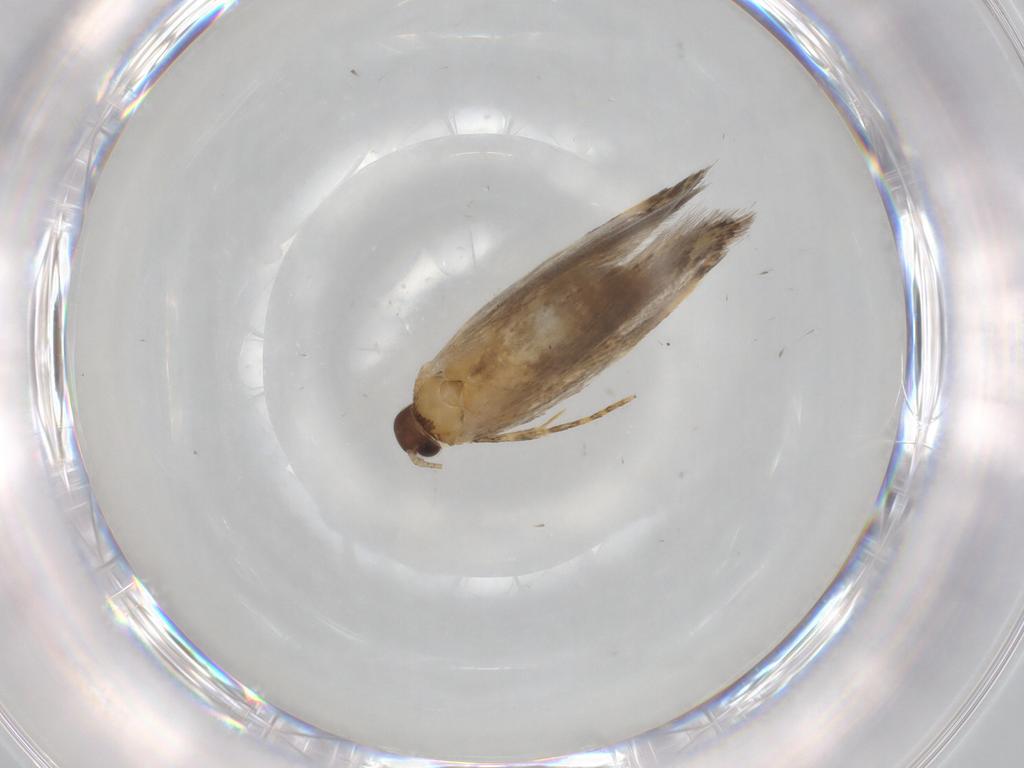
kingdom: Animalia
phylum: Arthropoda
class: Insecta
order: Lepidoptera
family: Autostichidae
